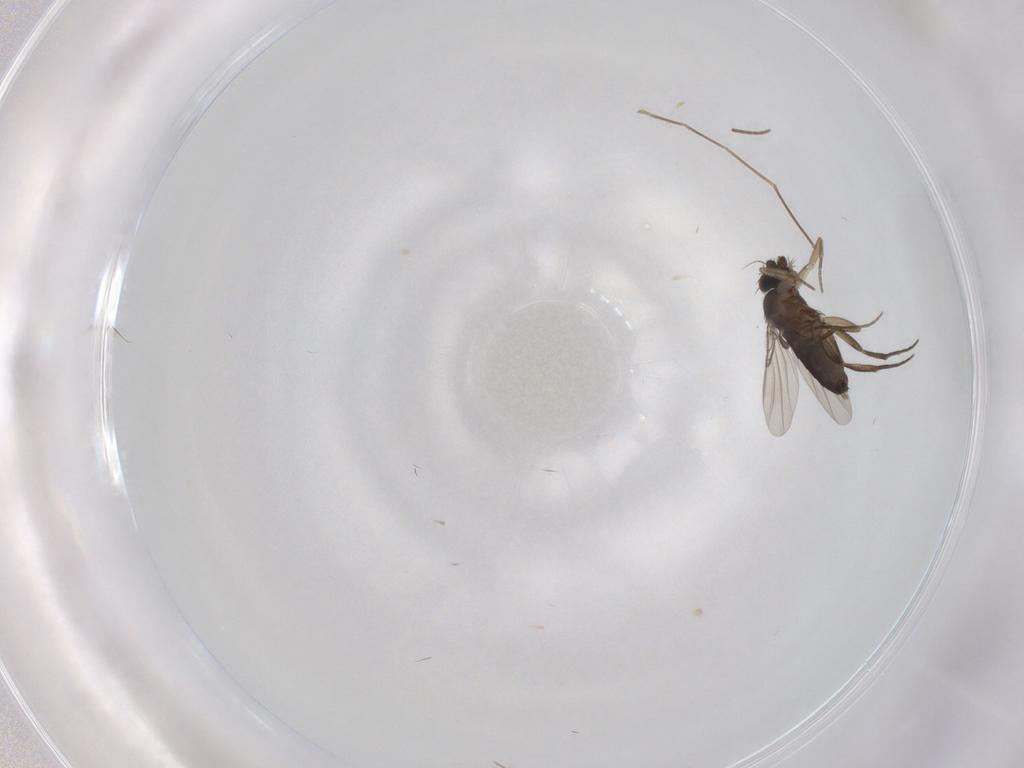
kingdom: Animalia
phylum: Arthropoda
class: Insecta
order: Diptera
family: Phoridae
